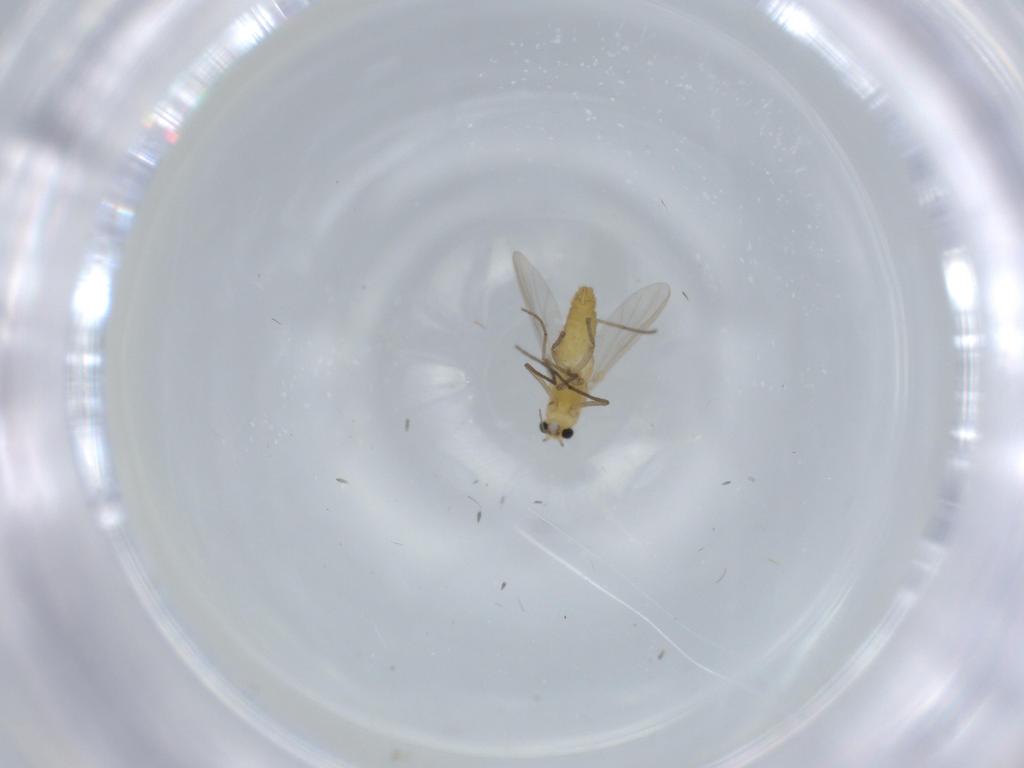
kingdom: Animalia
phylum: Arthropoda
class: Insecta
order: Diptera
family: Chironomidae
